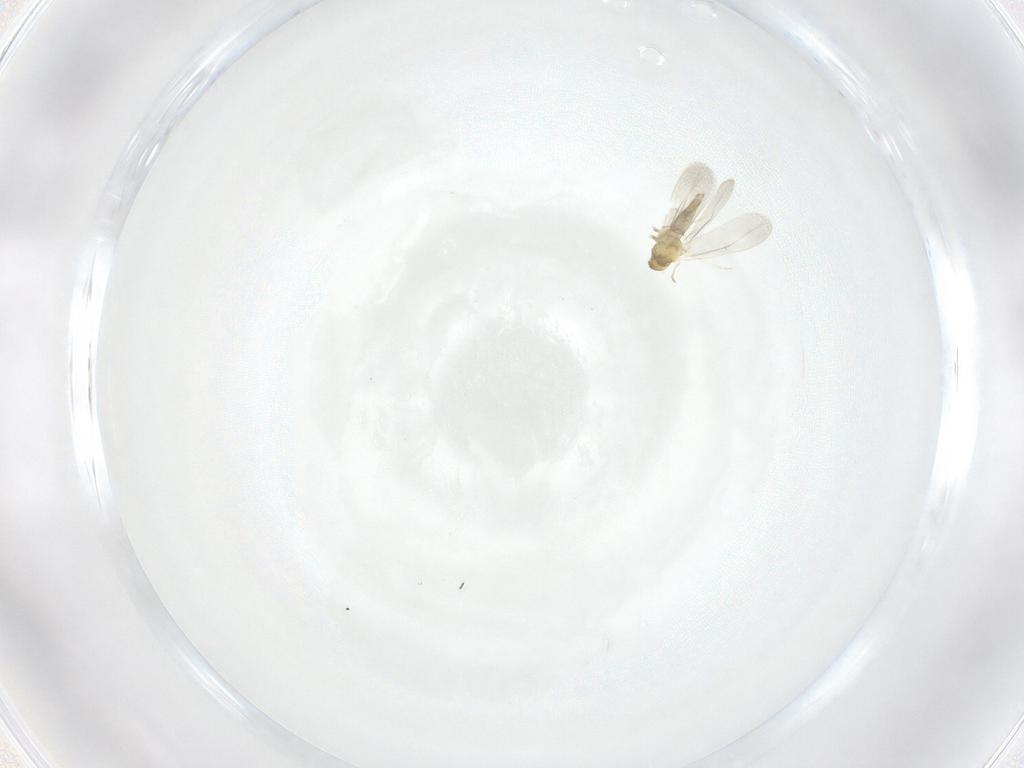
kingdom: Animalia
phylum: Arthropoda
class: Insecta
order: Hemiptera
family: Aleyrodidae
